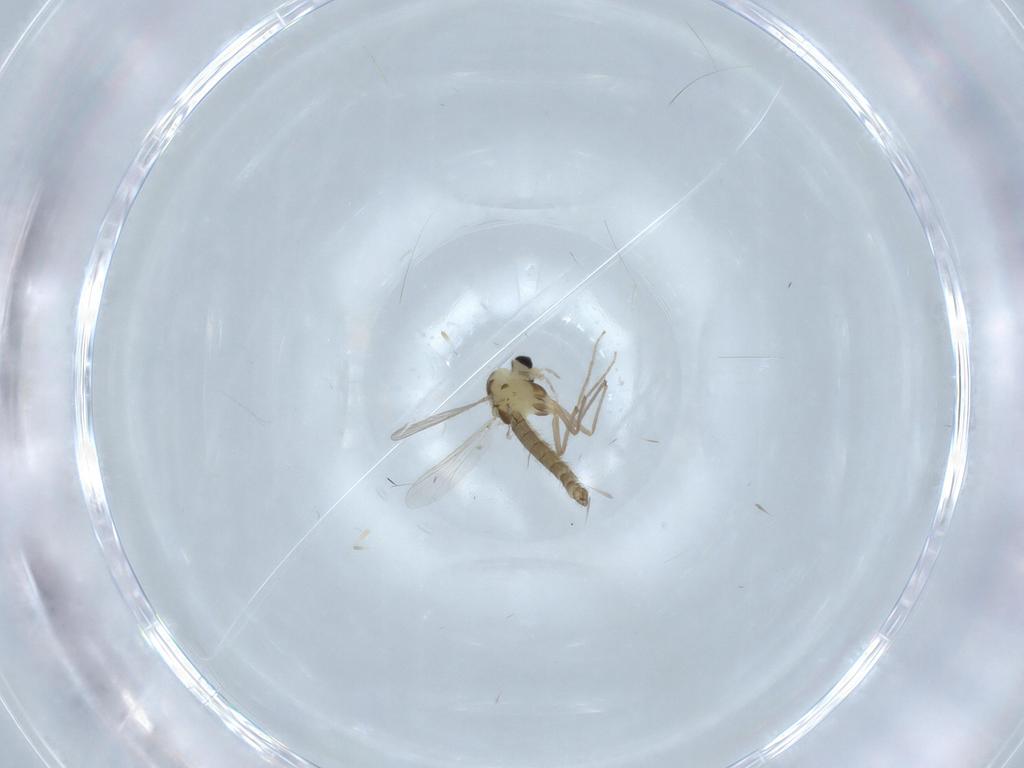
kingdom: Animalia
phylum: Arthropoda
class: Insecta
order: Diptera
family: Chironomidae
